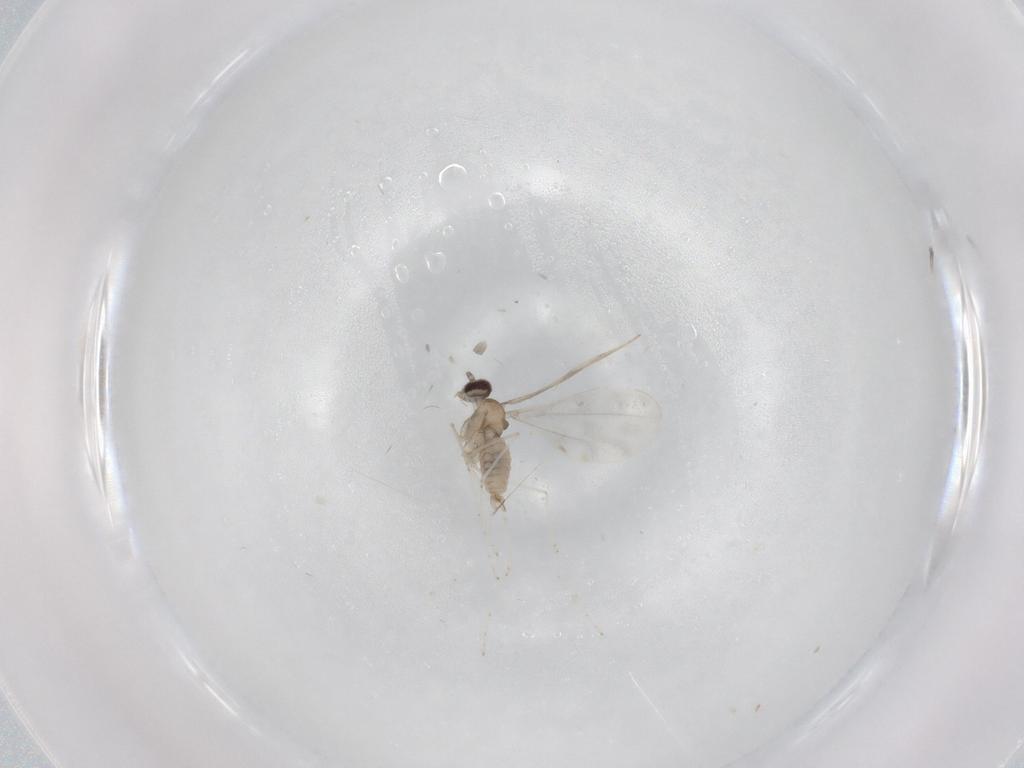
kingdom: Animalia
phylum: Arthropoda
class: Insecta
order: Diptera
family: Cecidomyiidae
